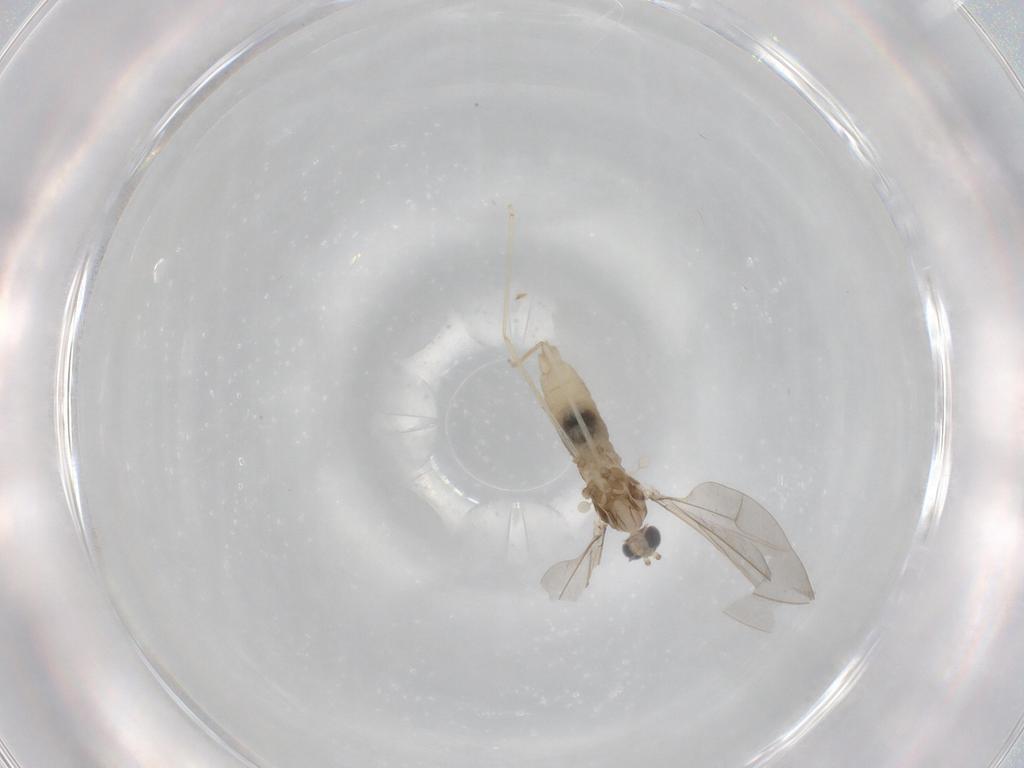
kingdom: Animalia
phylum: Arthropoda
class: Insecta
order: Diptera
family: Cecidomyiidae
